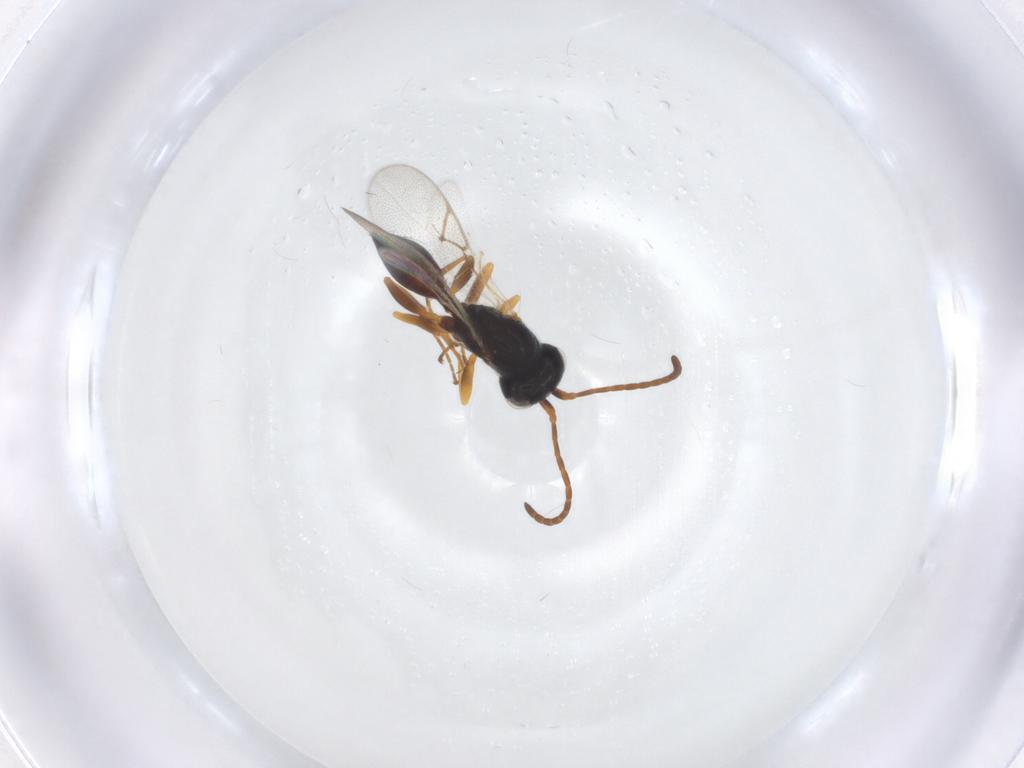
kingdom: Animalia
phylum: Arthropoda
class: Insecta
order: Hymenoptera
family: Figitidae
